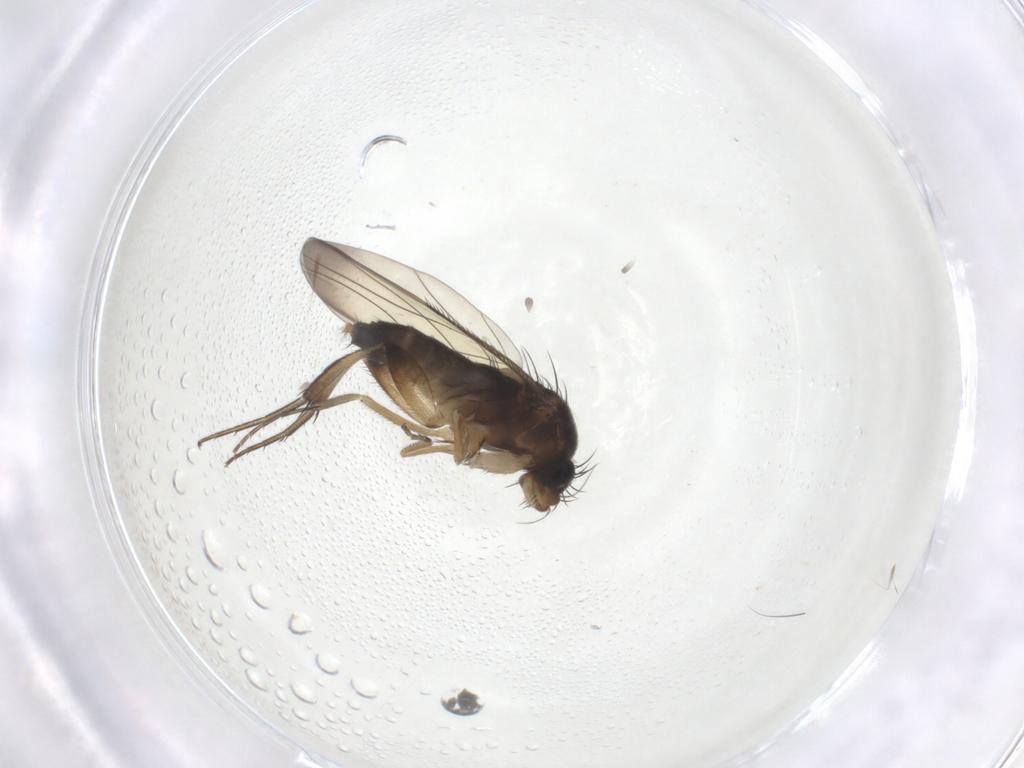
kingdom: Animalia
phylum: Arthropoda
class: Insecta
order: Diptera
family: Phoridae
